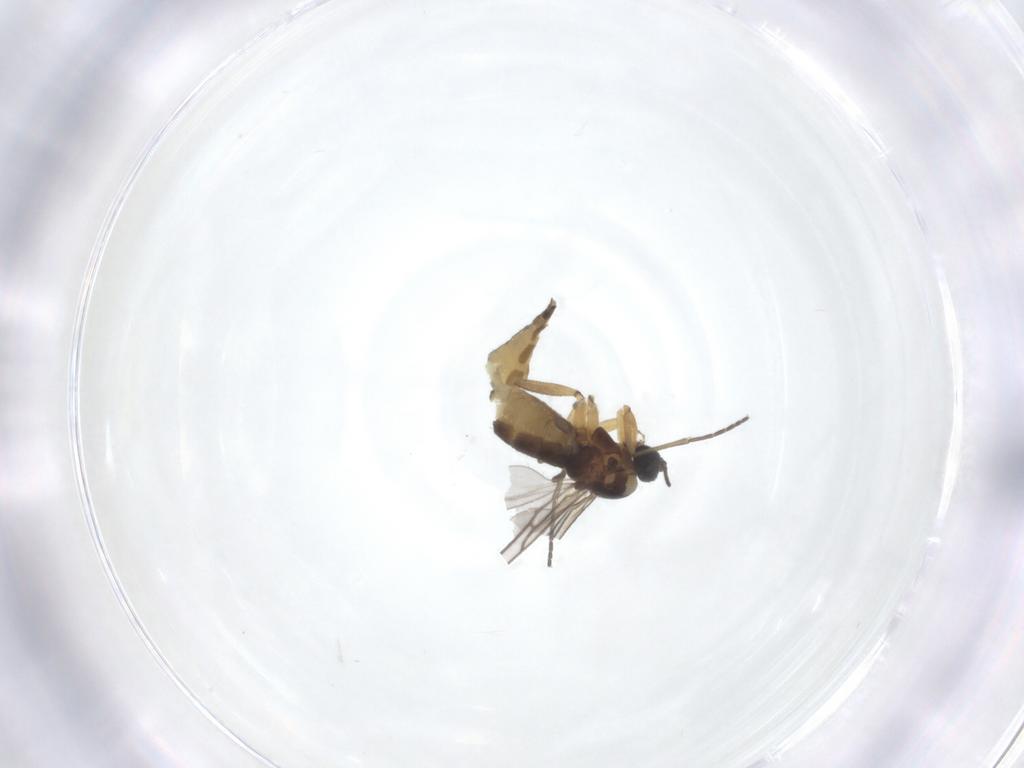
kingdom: Animalia
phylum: Arthropoda
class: Insecta
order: Diptera
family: Sciaridae
